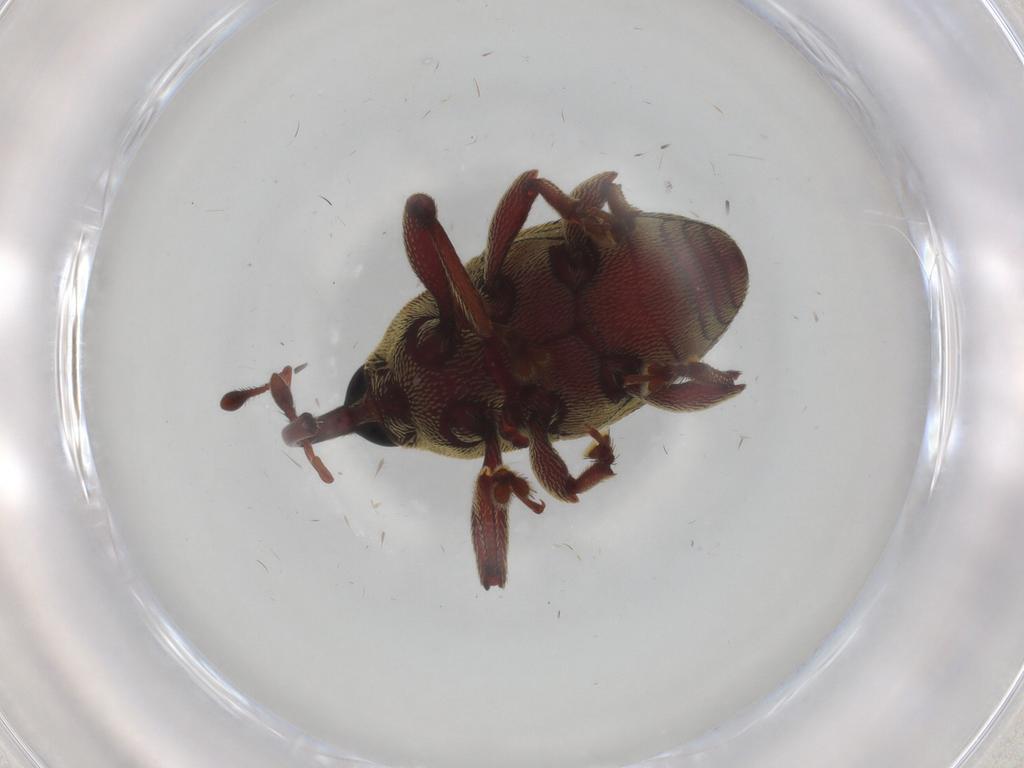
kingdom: Animalia
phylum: Arthropoda
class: Insecta
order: Coleoptera
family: Curculionidae
